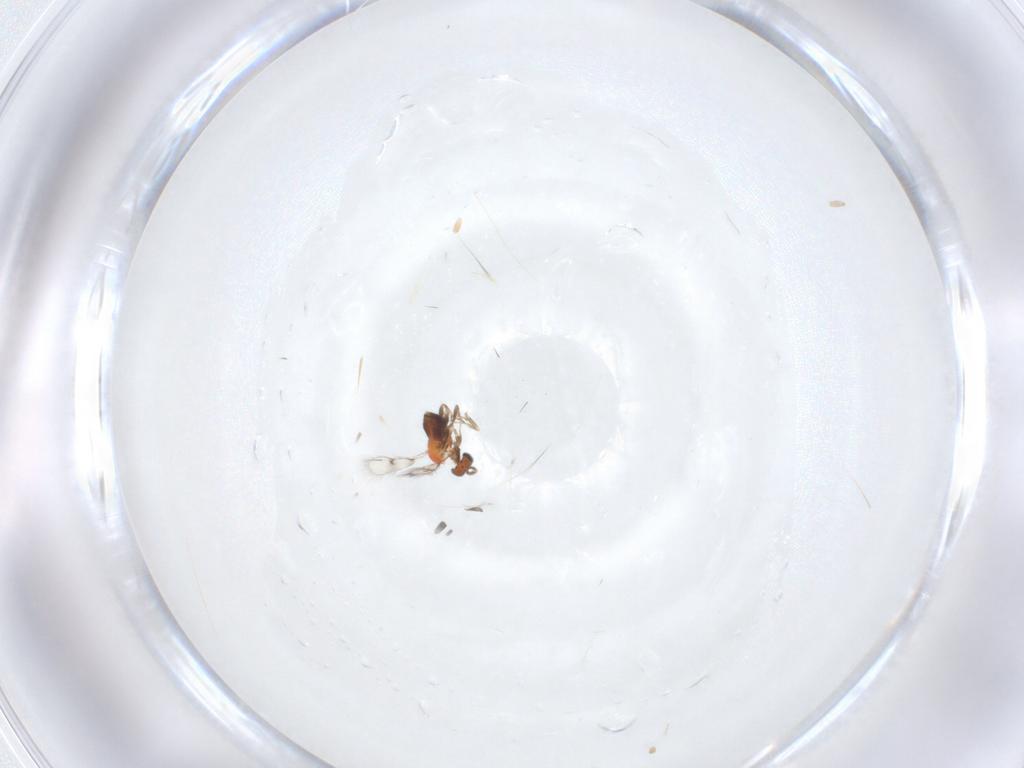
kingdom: Animalia
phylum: Arthropoda
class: Insecta
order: Hymenoptera
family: Trichogrammatidae
